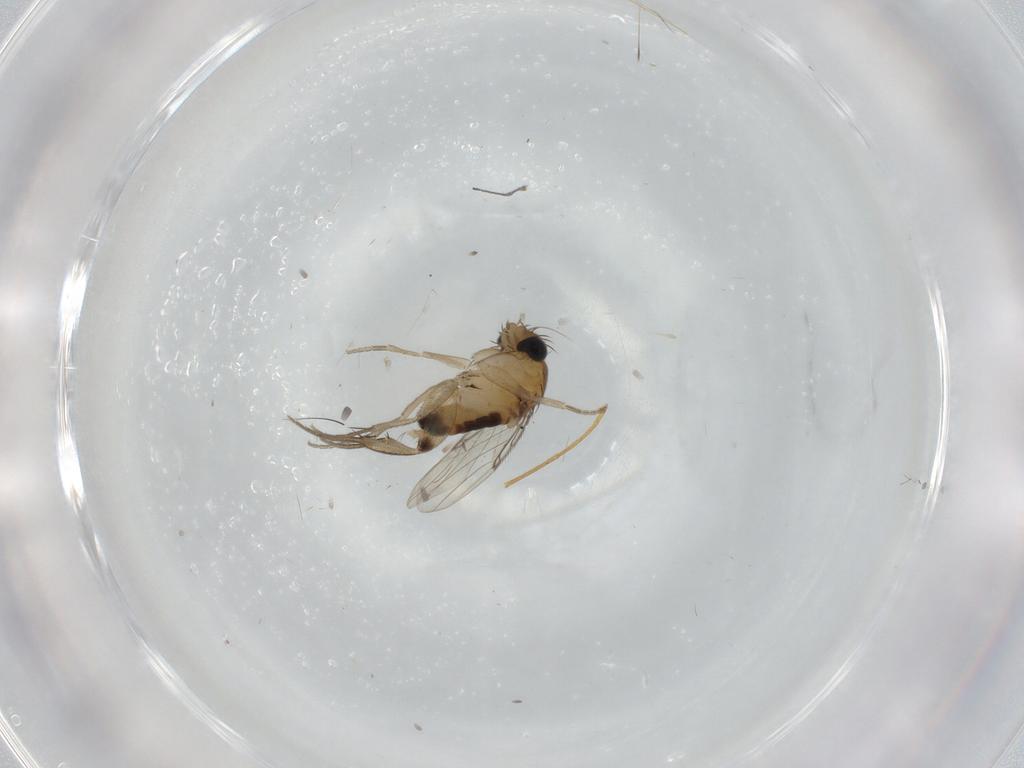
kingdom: Animalia
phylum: Arthropoda
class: Insecta
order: Diptera
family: Phoridae
